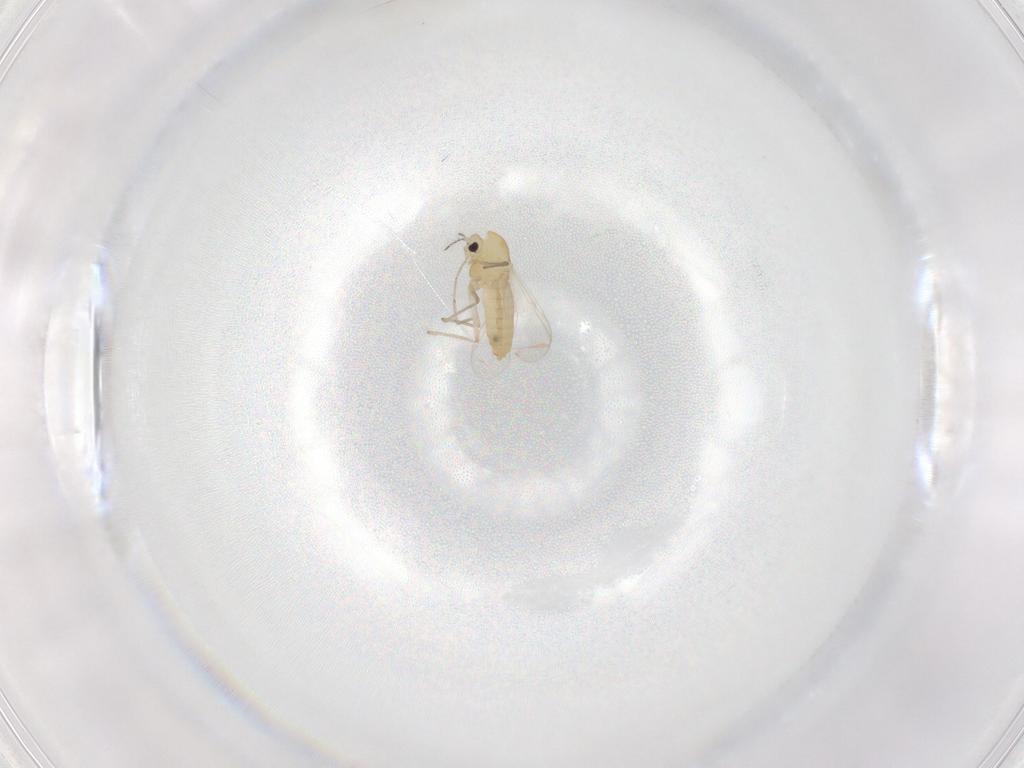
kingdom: Animalia
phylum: Arthropoda
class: Insecta
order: Diptera
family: Chironomidae
